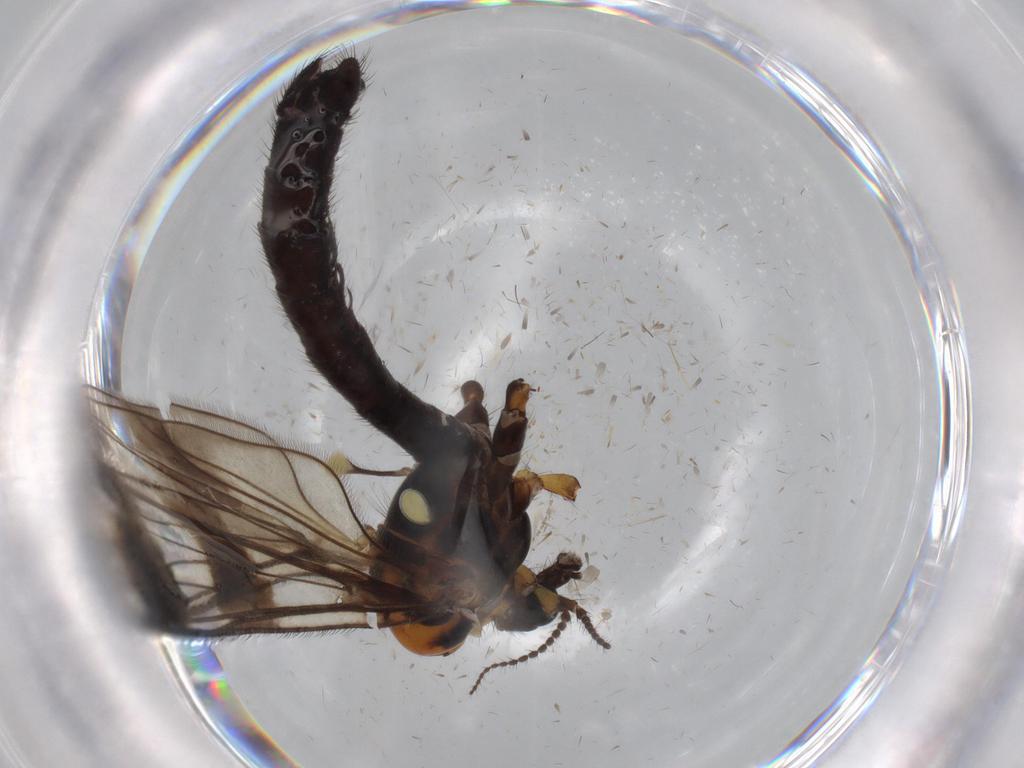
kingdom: Animalia
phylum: Arthropoda
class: Insecta
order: Diptera
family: Limoniidae
